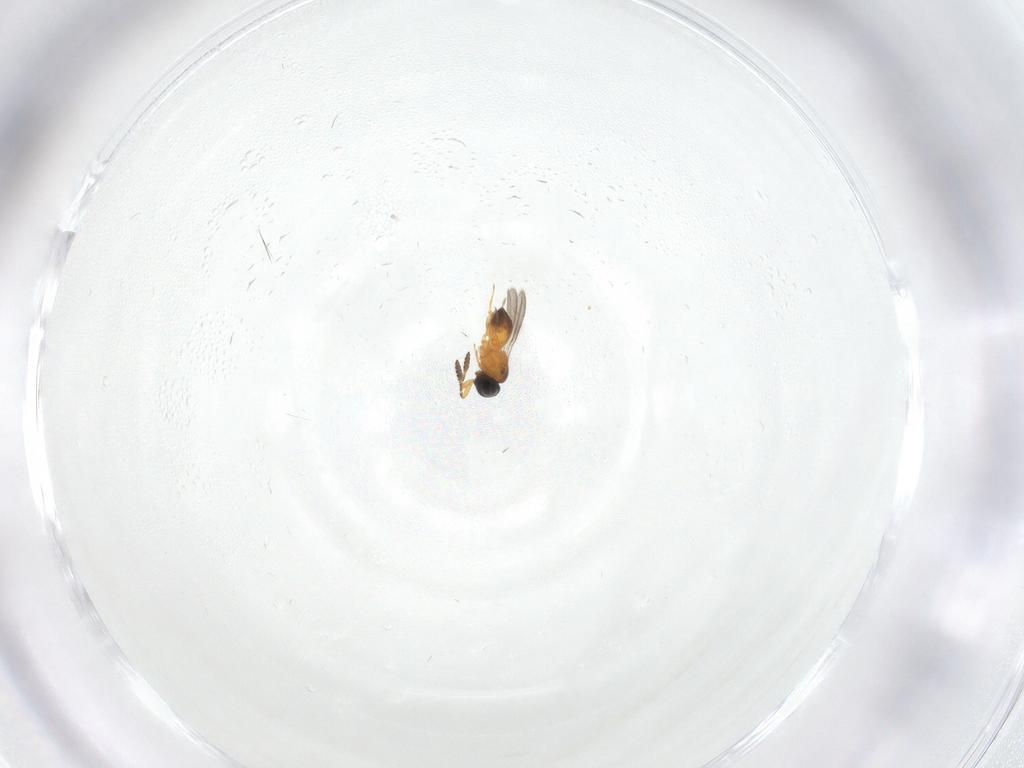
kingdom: Animalia
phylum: Arthropoda
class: Insecta
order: Hymenoptera
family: Scelionidae
